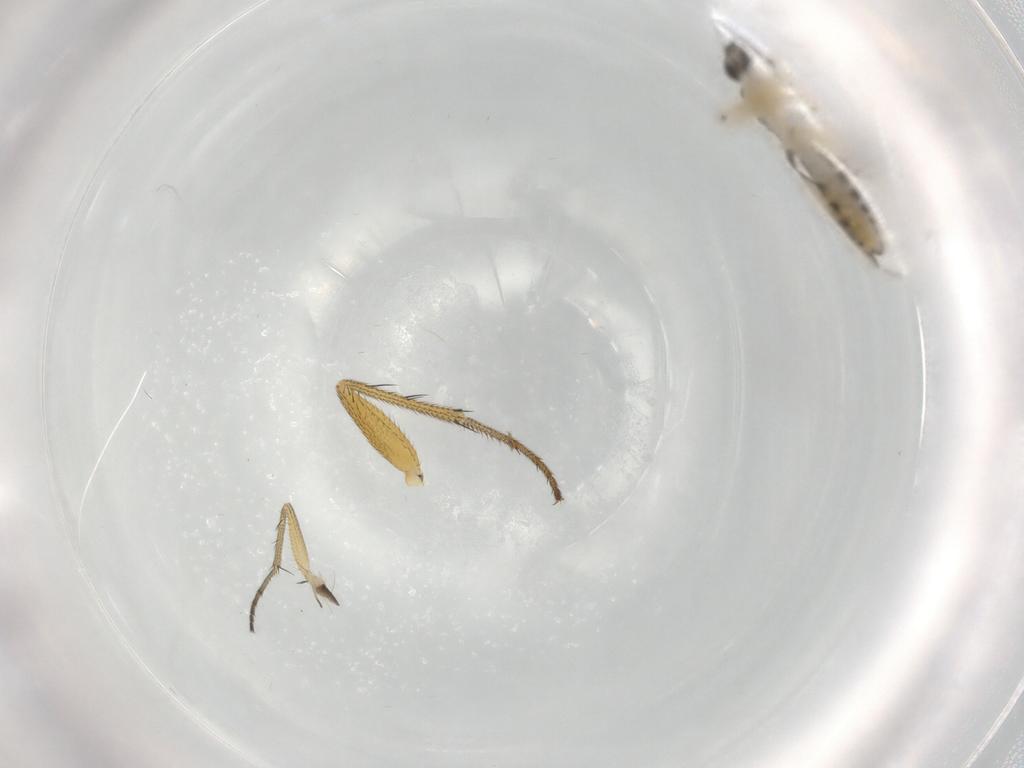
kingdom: Animalia
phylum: Arthropoda
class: Insecta
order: Diptera
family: Ceratopogonidae
